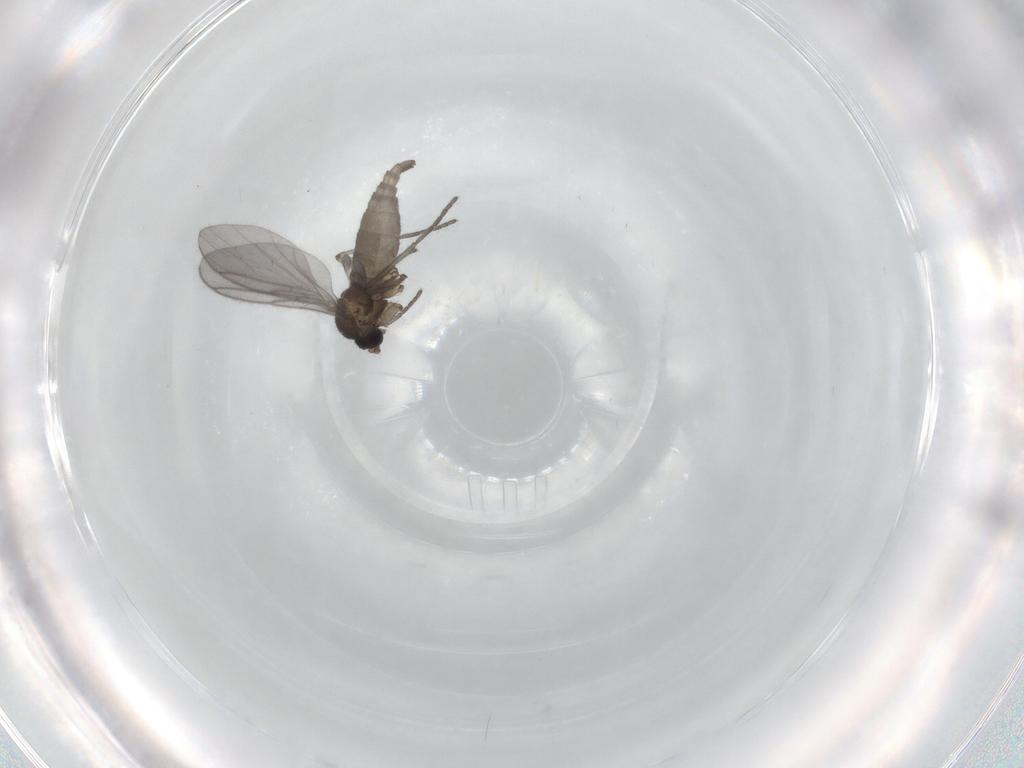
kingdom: Animalia
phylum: Arthropoda
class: Insecta
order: Diptera
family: Sciaridae
